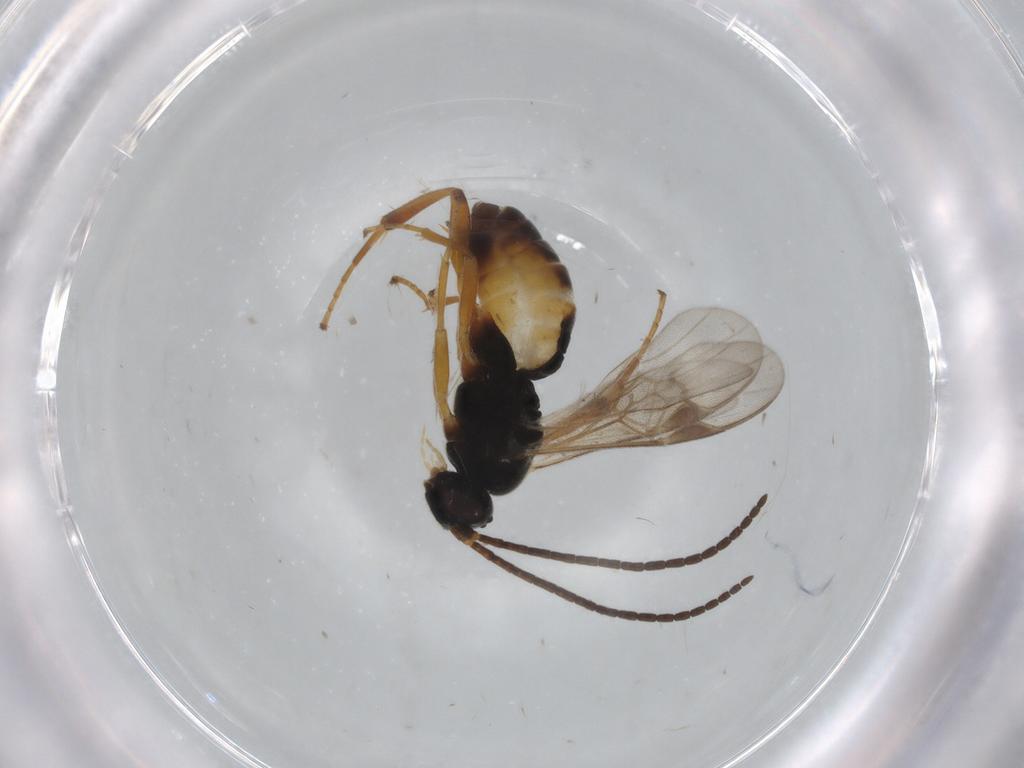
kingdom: Animalia
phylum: Arthropoda
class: Insecta
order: Hymenoptera
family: Braconidae
